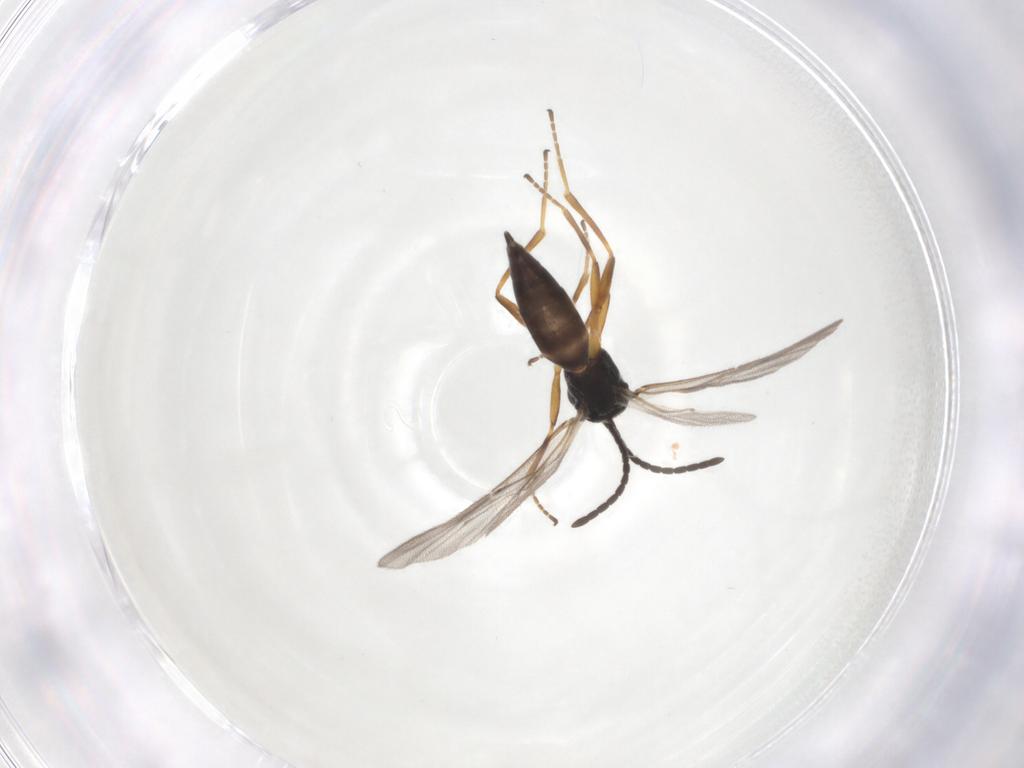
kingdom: Animalia
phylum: Arthropoda
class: Insecta
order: Hymenoptera
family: Braconidae
